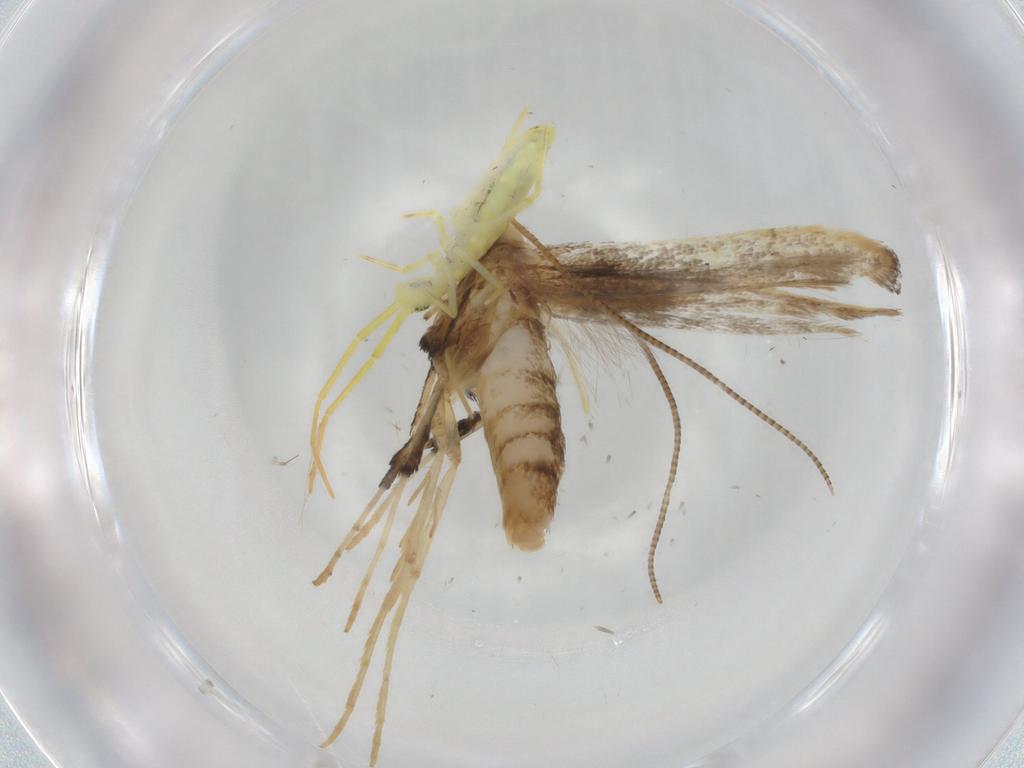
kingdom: Animalia
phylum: Arthropoda
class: Insecta
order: Lepidoptera
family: Gracillariidae
